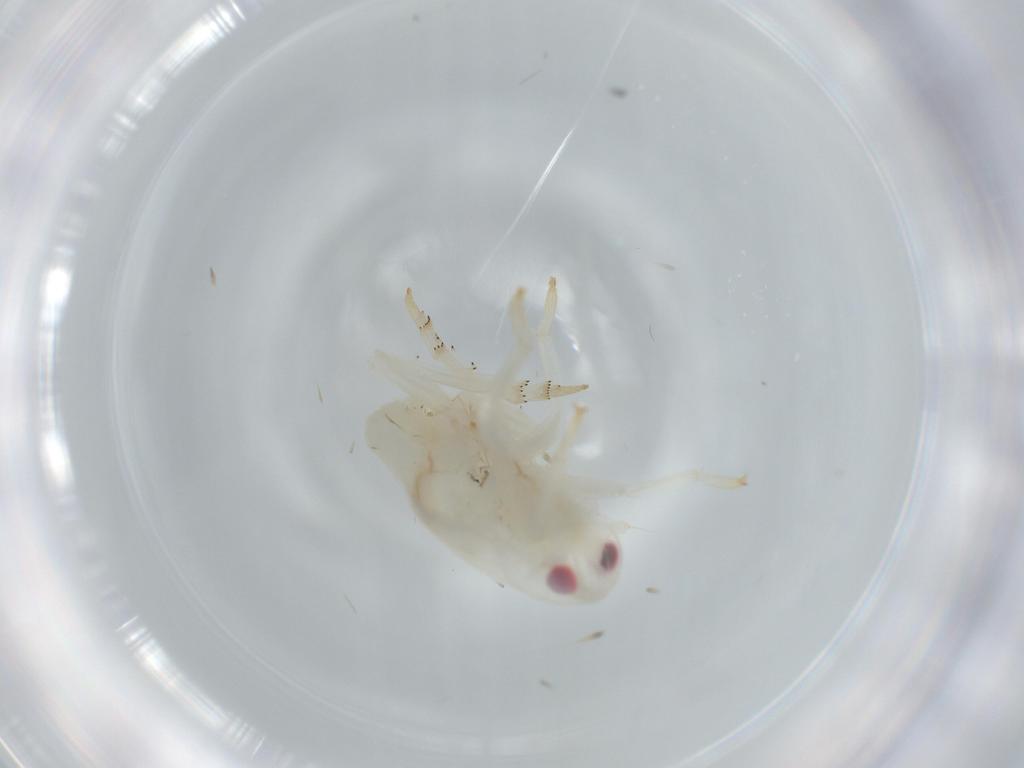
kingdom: Animalia
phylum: Arthropoda
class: Insecta
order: Hemiptera
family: Flatidae
